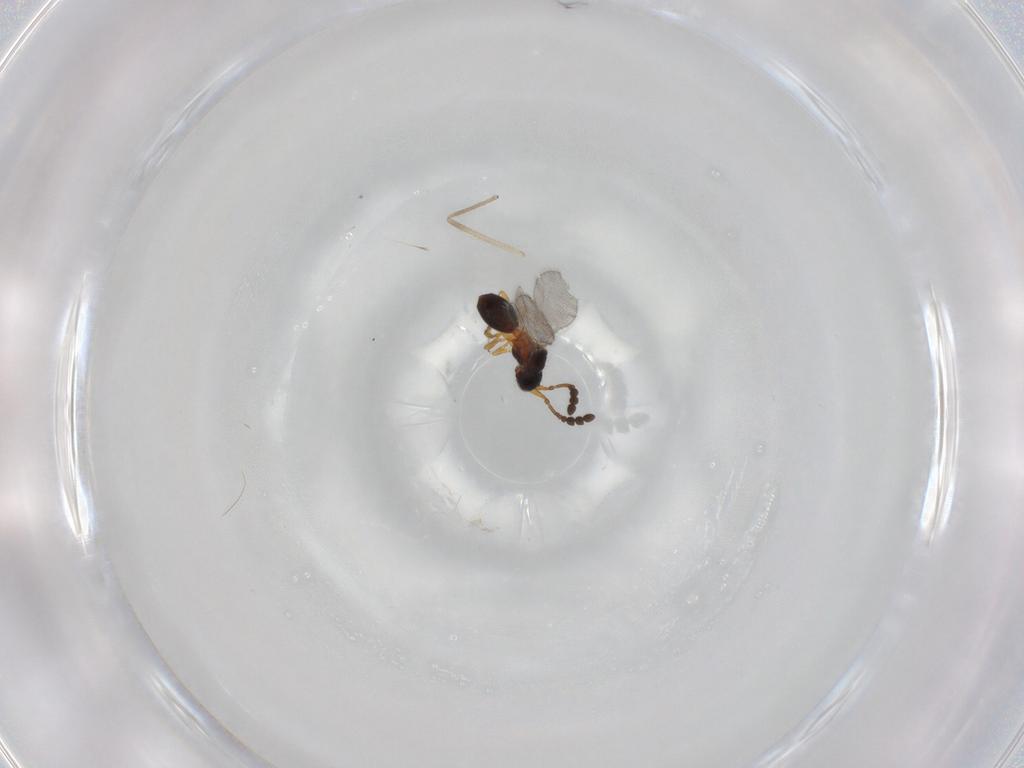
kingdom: Animalia
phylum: Arthropoda
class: Insecta
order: Hymenoptera
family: Diapriidae
